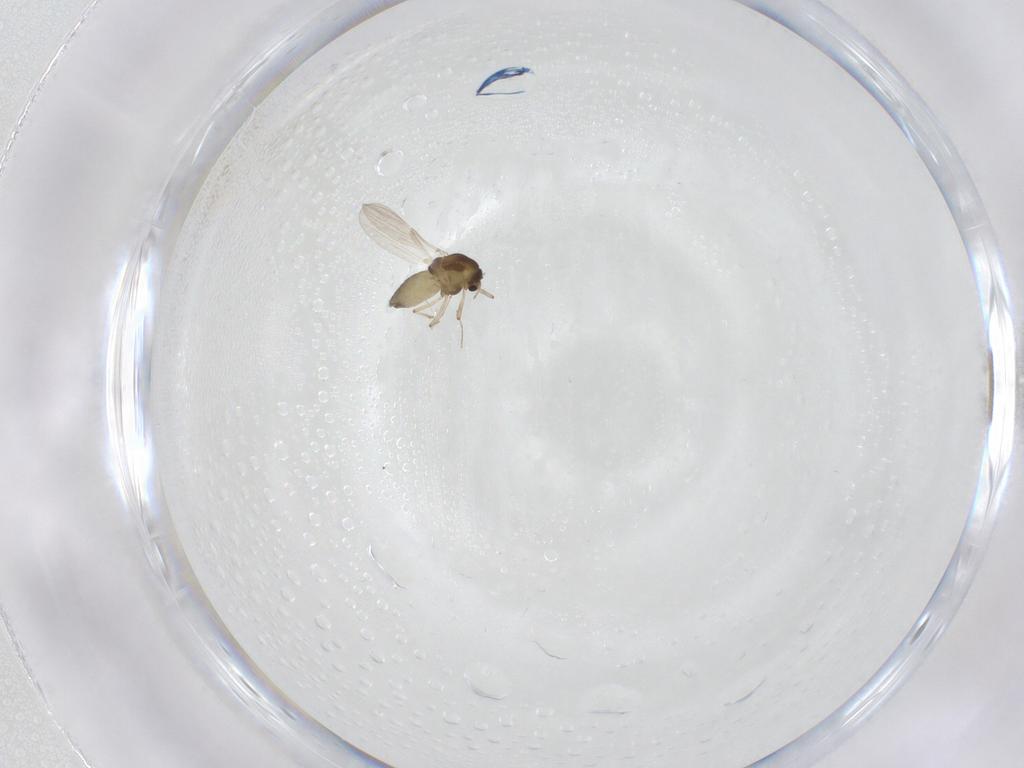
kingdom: Animalia
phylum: Arthropoda
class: Insecta
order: Diptera
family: Chironomidae
